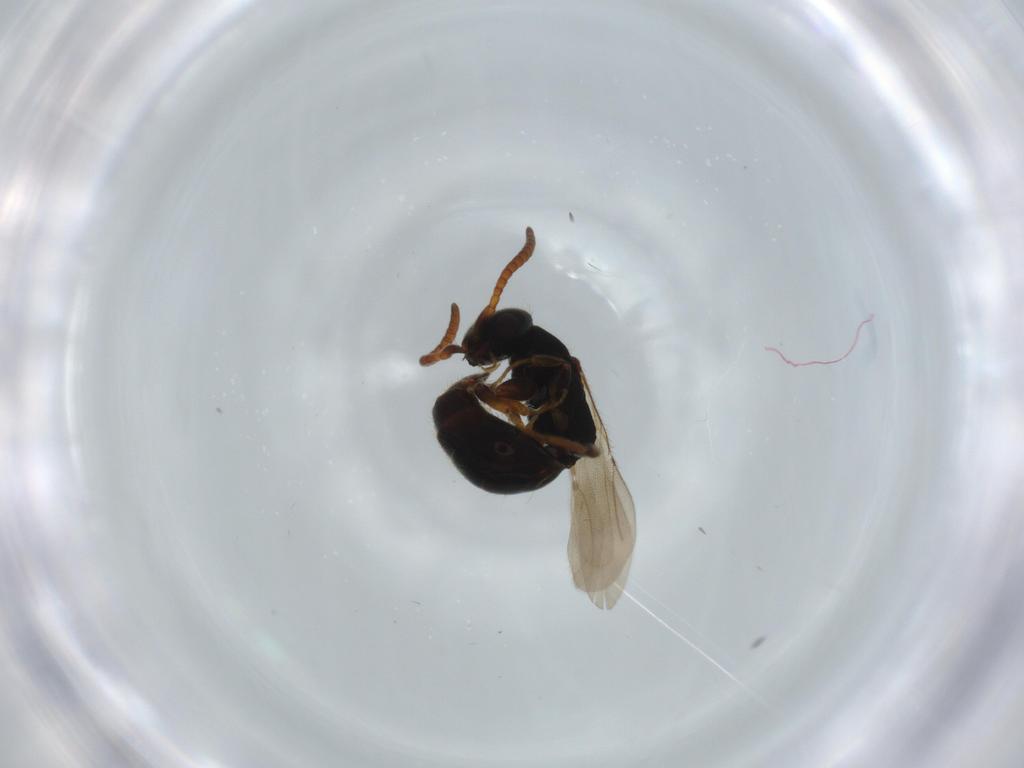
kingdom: Animalia
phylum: Arthropoda
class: Insecta
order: Hymenoptera
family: Bethylidae
